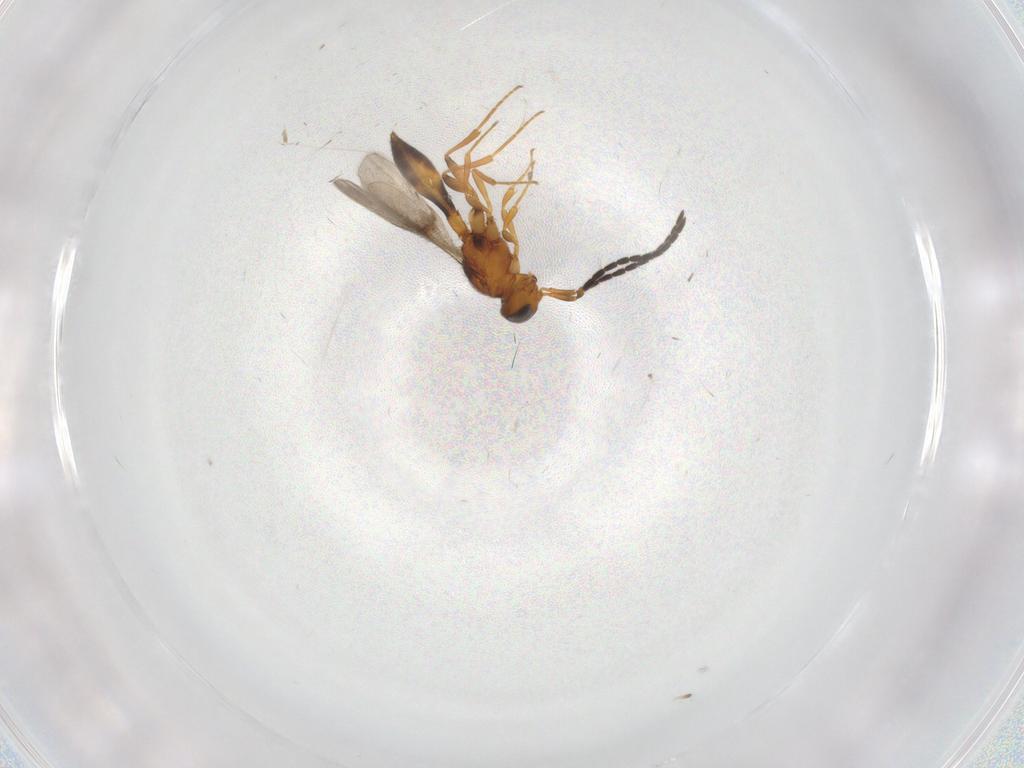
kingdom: Animalia
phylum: Arthropoda
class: Insecta
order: Hymenoptera
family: Scelionidae
